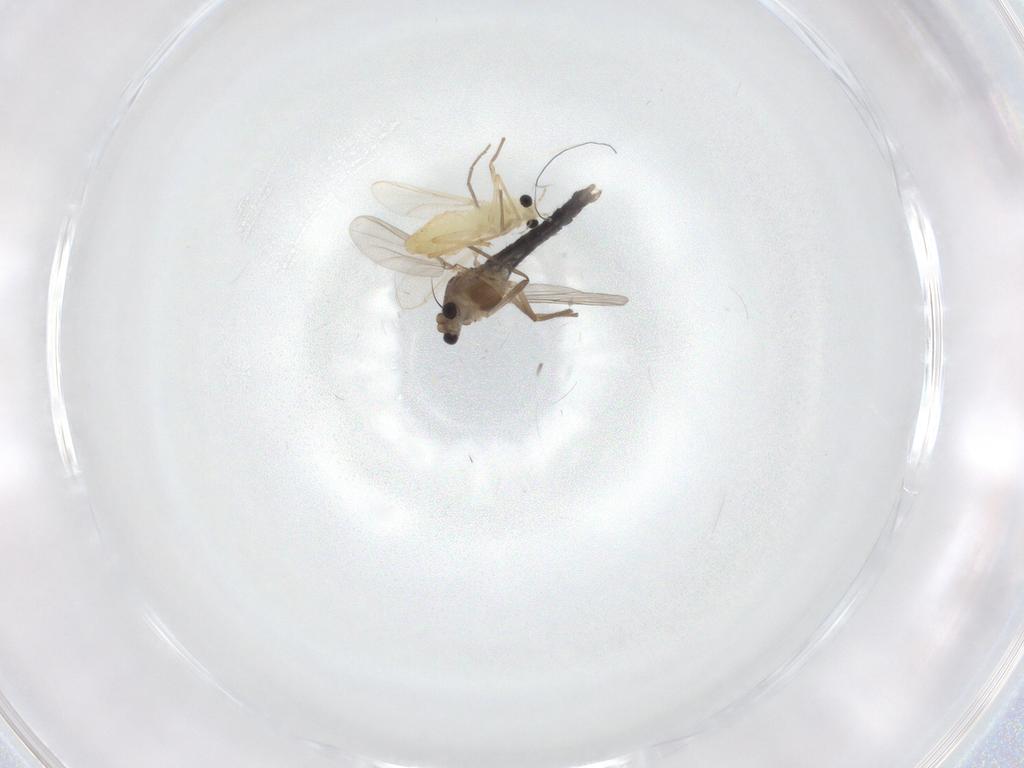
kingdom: Animalia
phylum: Arthropoda
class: Insecta
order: Diptera
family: Chironomidae
